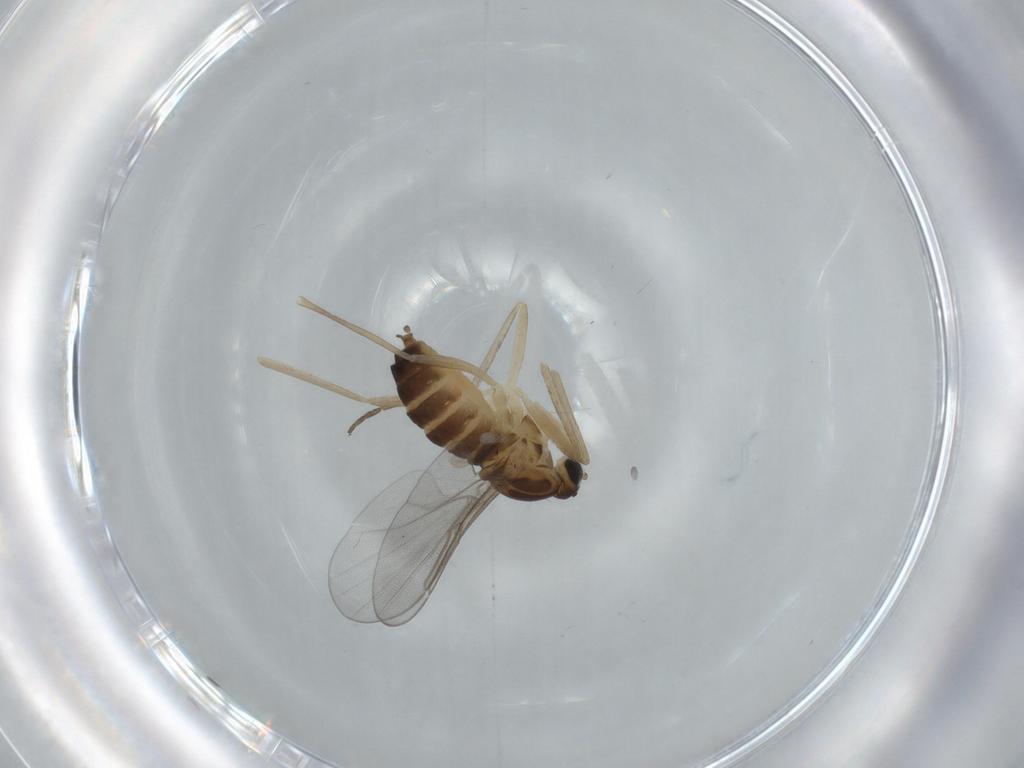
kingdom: Animalia
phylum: Arthropoda
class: Insecta
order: Diptera
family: Cecidomyiidae
